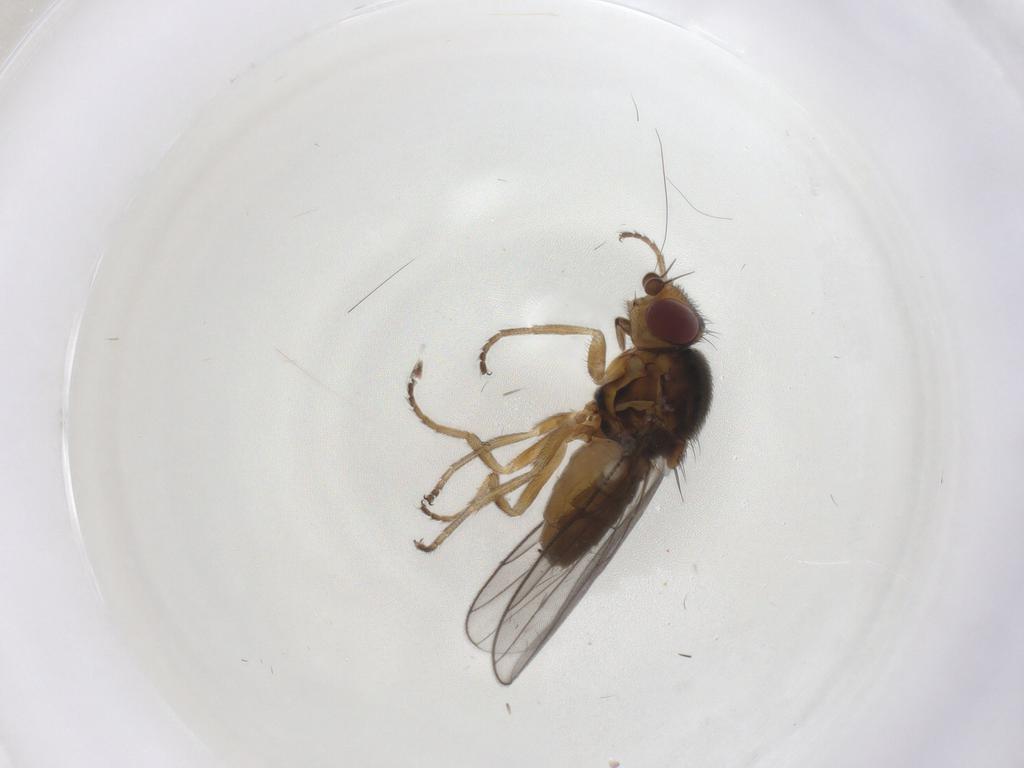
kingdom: Animalia
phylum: Arthropoda
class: Insecta
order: Diptera
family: Chloropidae
